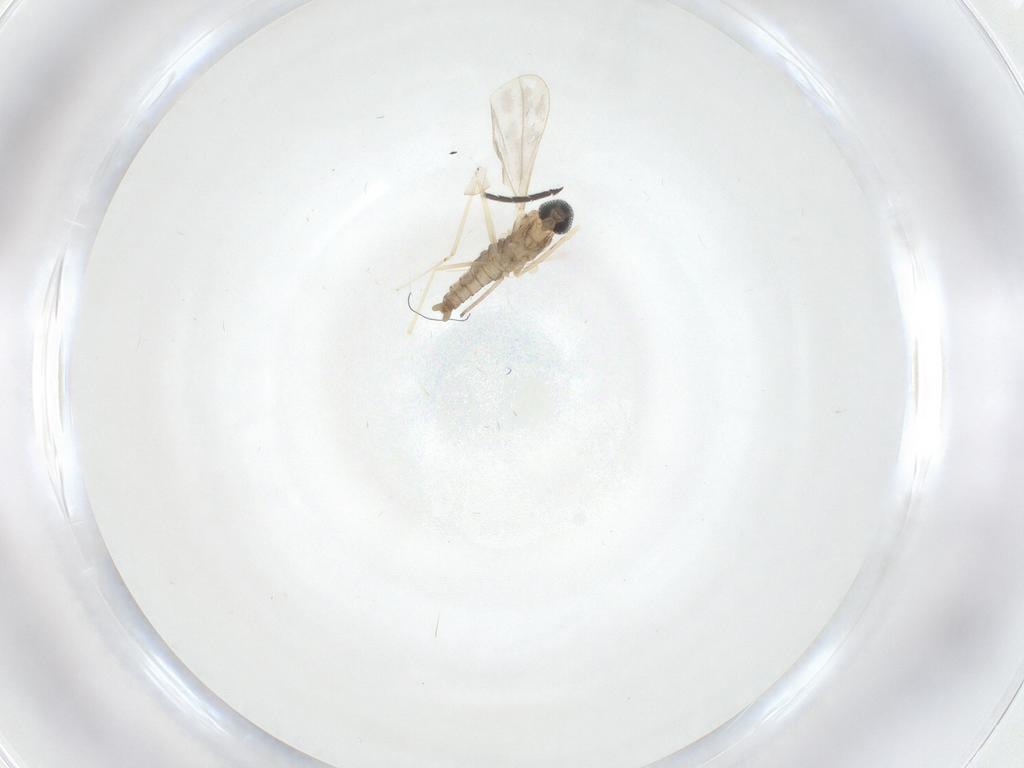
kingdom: Animalia
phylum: Arthropoda
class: Insecta
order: Diptera
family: Sciaridae
